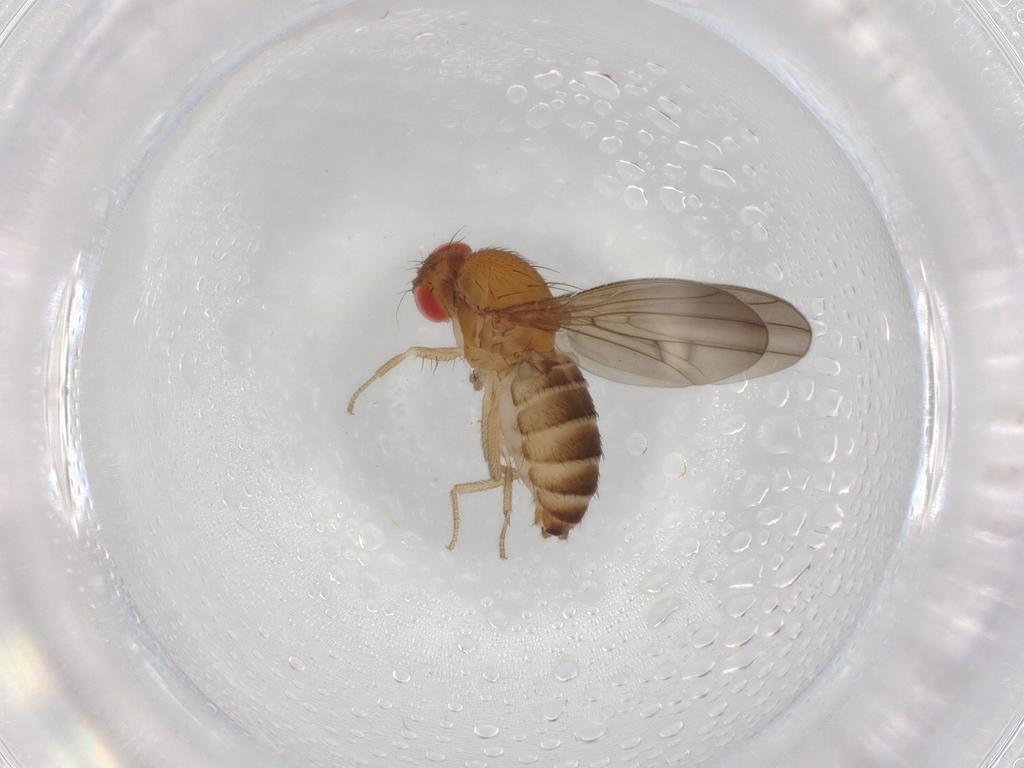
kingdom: Animalia
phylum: Arthropoda
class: Insecta
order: Diptera
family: Drosophilidae
